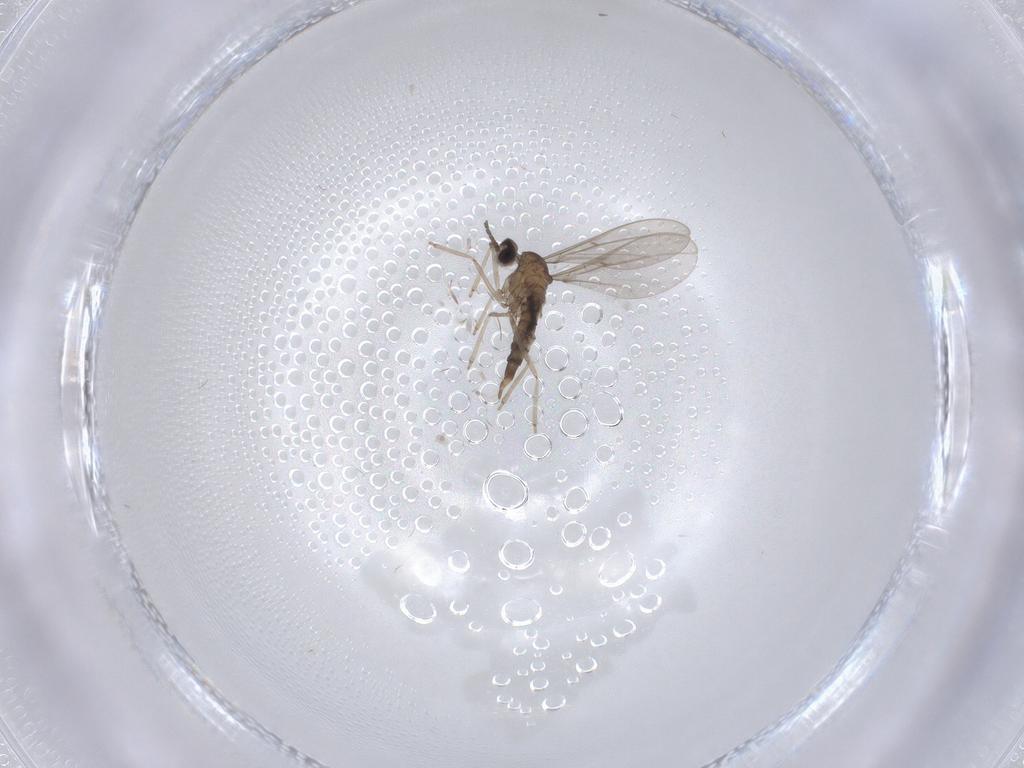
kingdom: Animalia
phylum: Arthropoda
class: Insecta
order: Diptera
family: Cecidomyiidae
